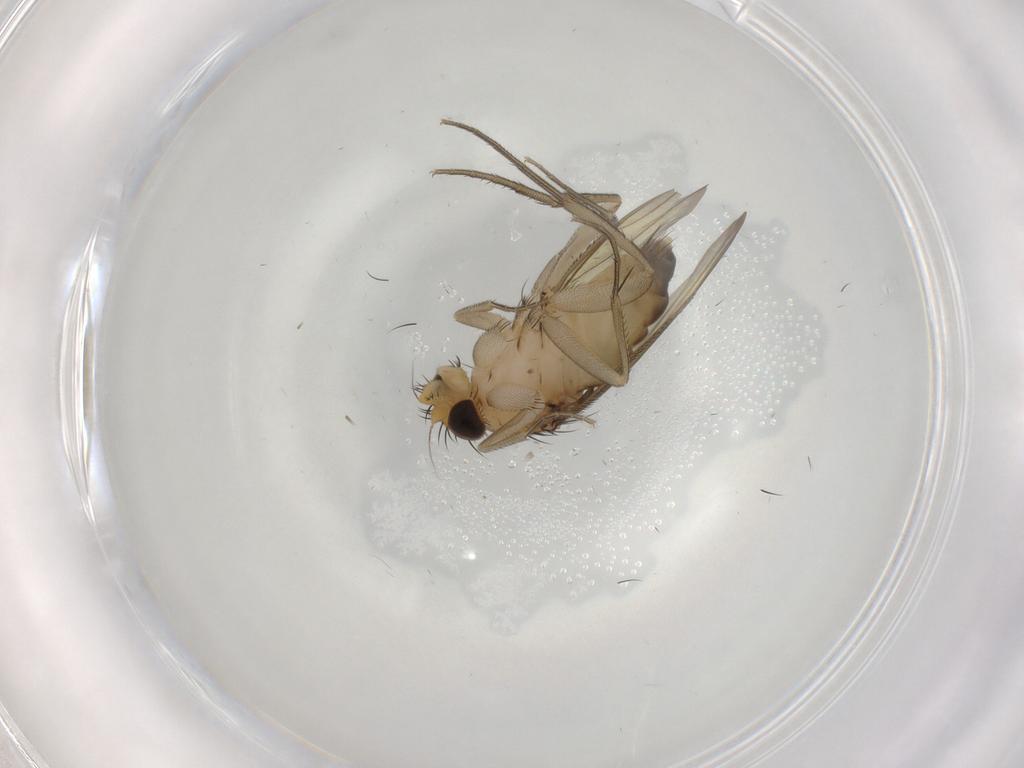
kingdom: Animalia
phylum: Arthropoda
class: Insecta
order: Diptera
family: Phoridae
